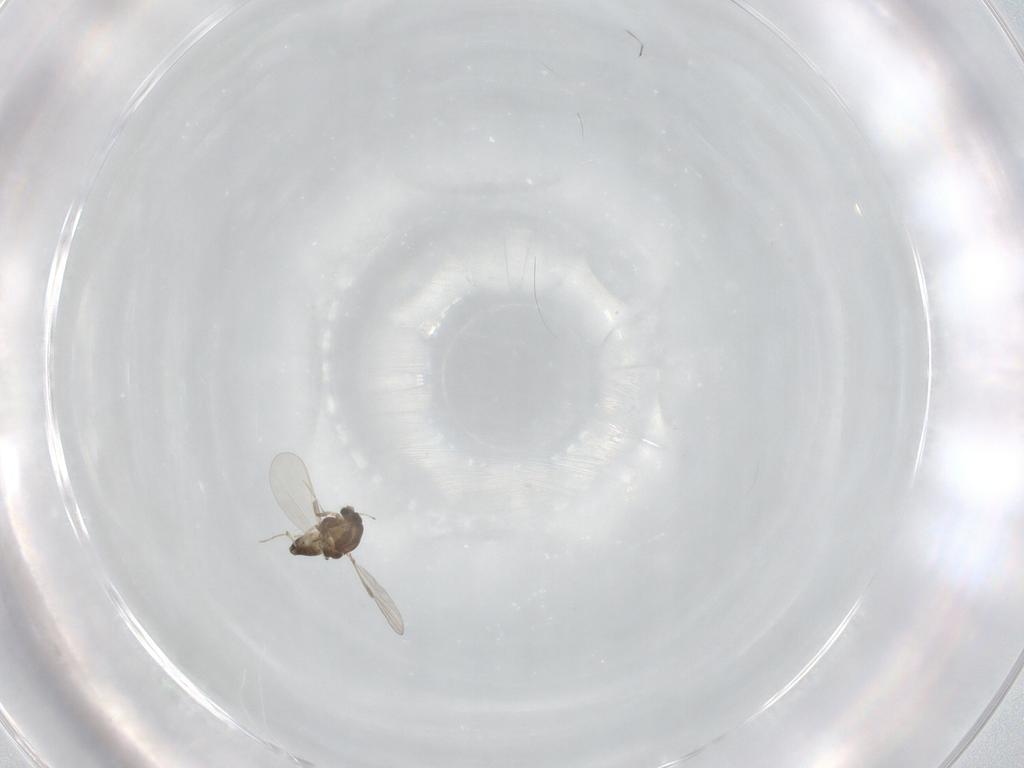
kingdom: Animalia
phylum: Arthropoda
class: Insecta
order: Diptera
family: Chironomidae
